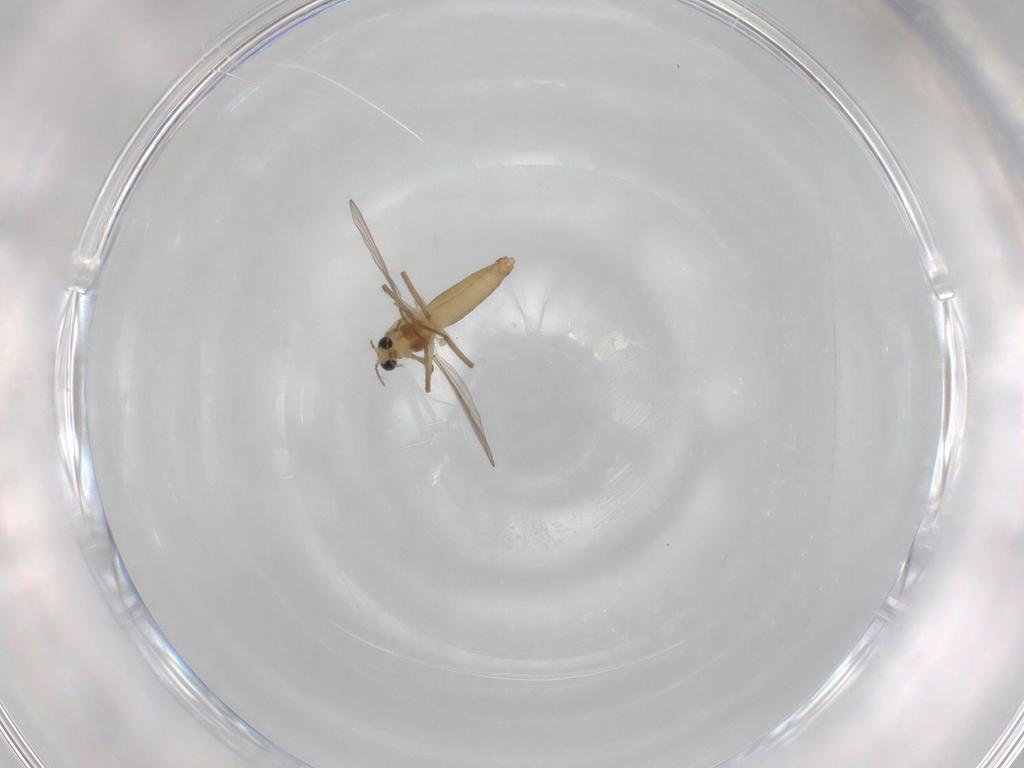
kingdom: Animalia
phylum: Arthropoda
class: Insecta
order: Diptera
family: Chironomidae
